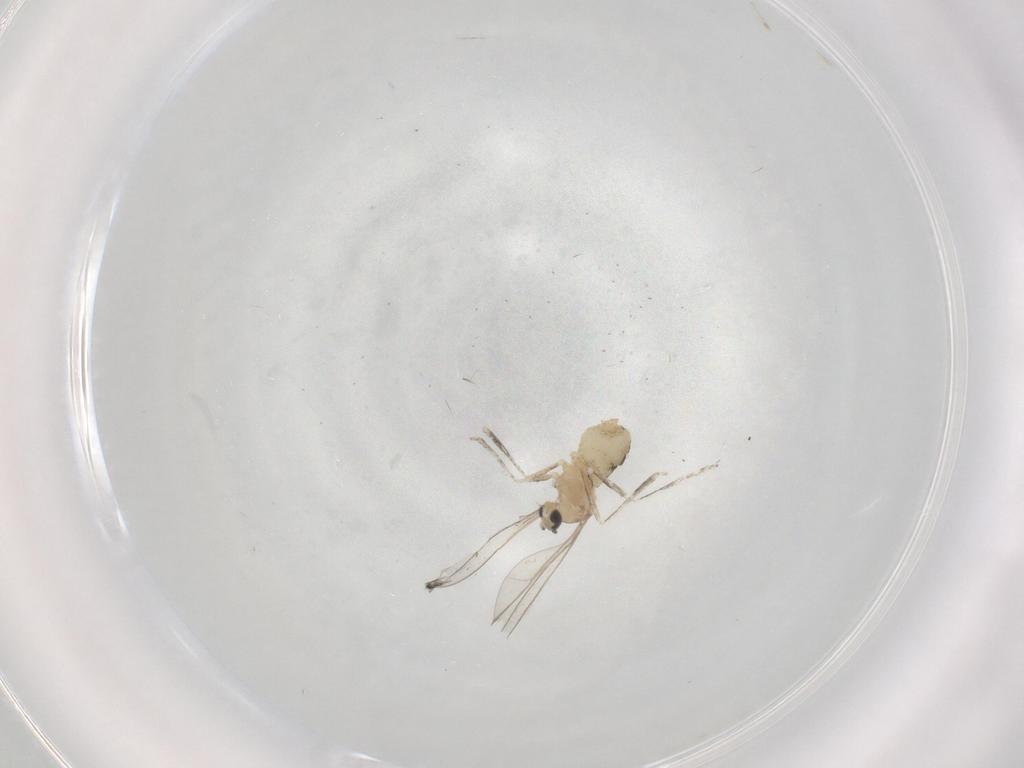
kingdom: Animalia
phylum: Arthropoda
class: Insecta
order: Diptera
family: Cecidomyiidae
